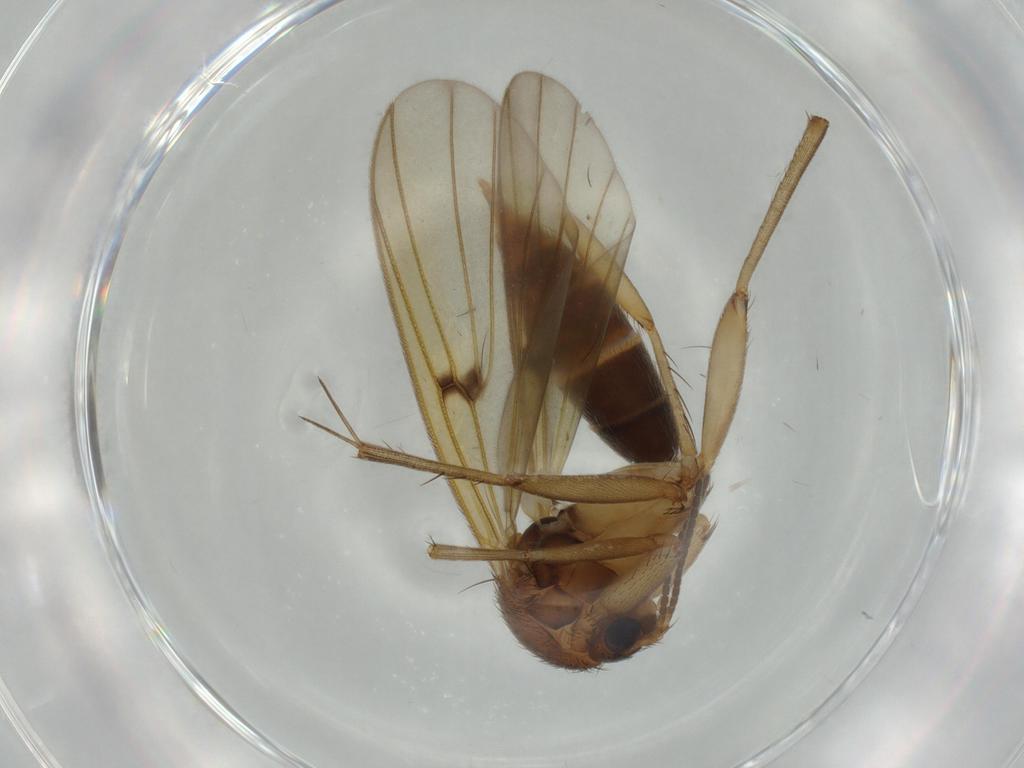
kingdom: Animalia
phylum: Arthropoda
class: Insecta
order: Diptera
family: Cecidomyiidae
